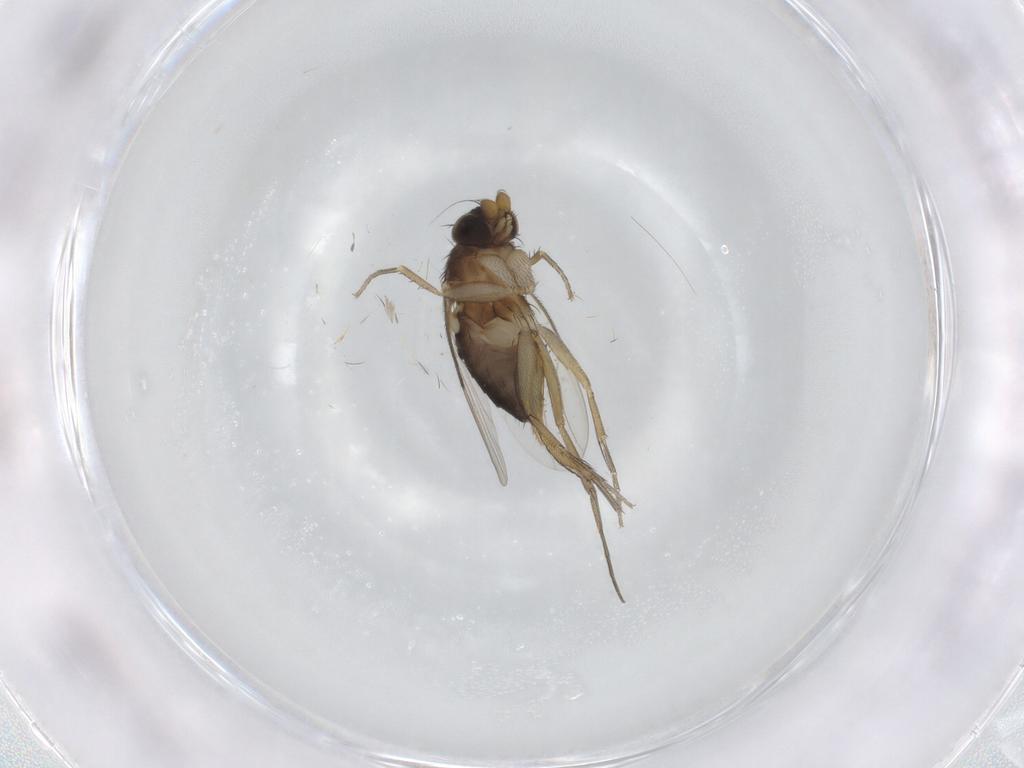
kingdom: Animalia
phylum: Arthropoda
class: Insecta
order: Diptera
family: Phoridae
